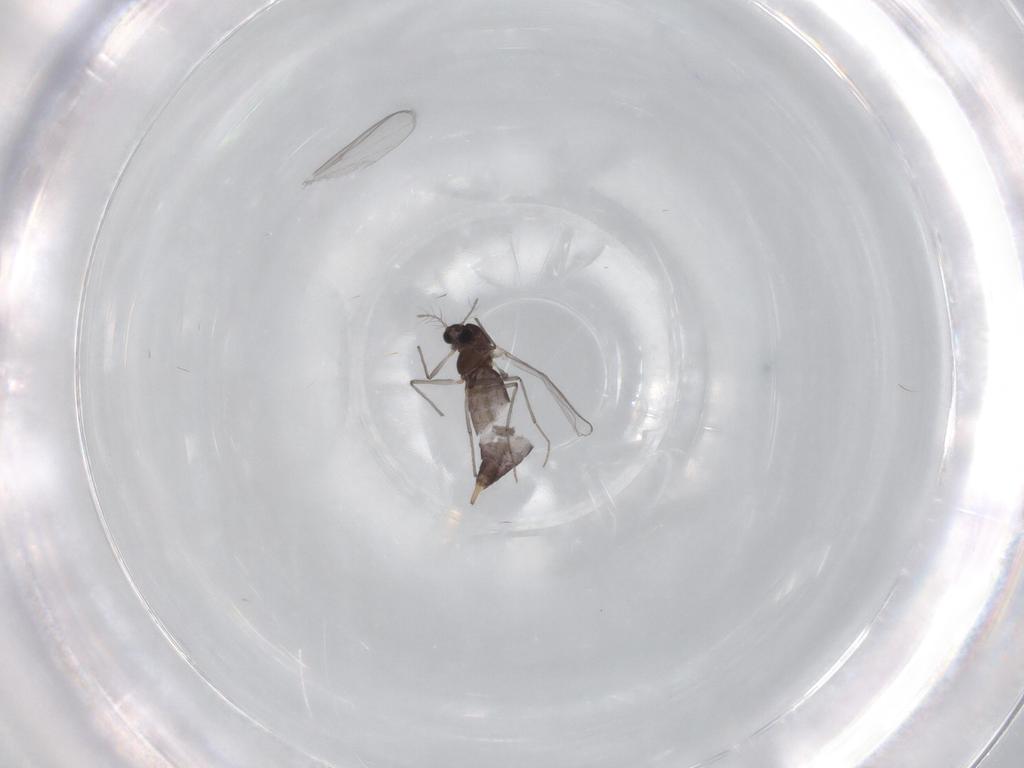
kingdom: Animalia
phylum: Arthropoda
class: Insecta
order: Diptera
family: Chironomidae
